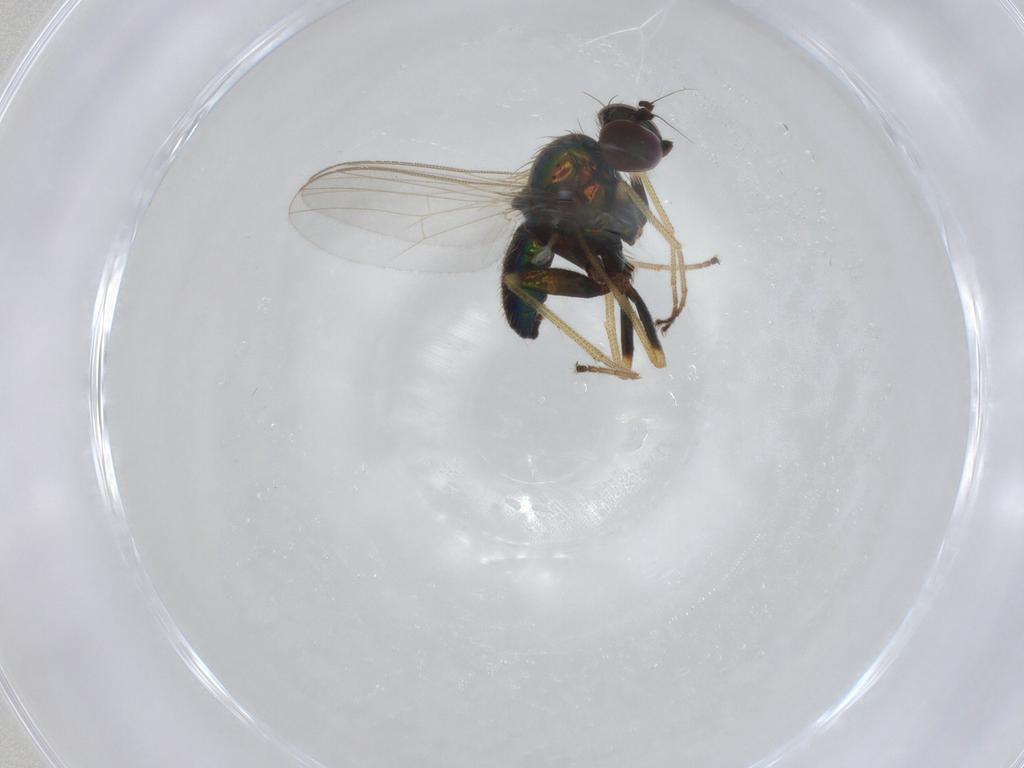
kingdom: Animalia
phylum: Arthropoda
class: Insecta
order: Diptera
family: Dolichopodidae
